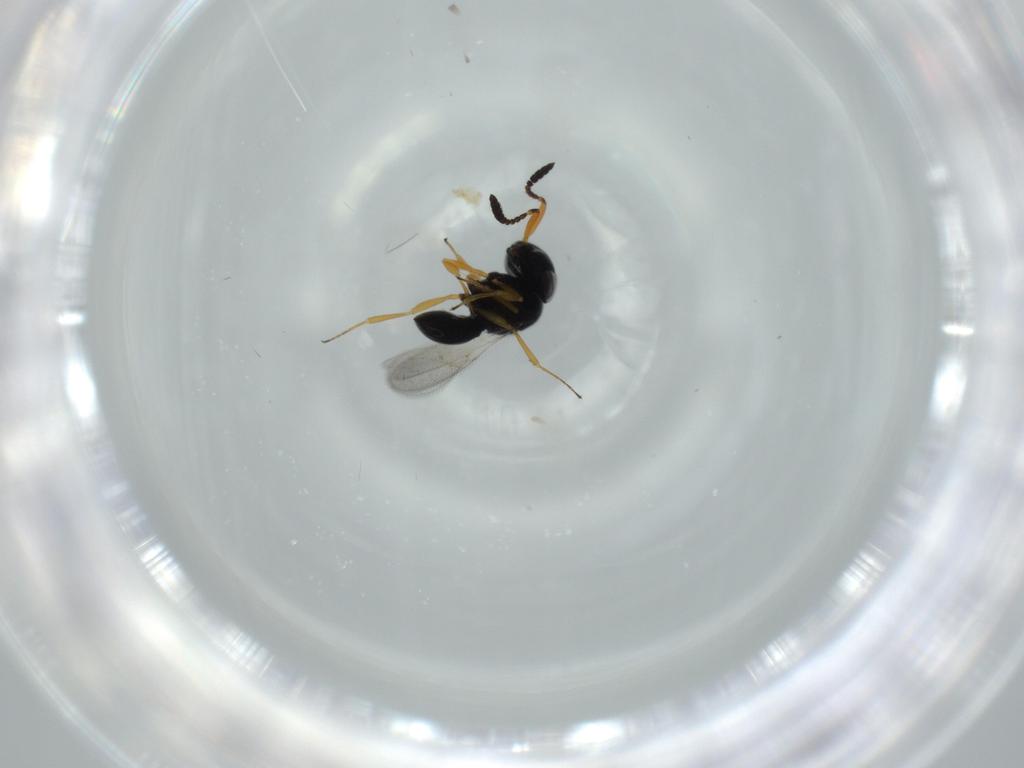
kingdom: Animalia
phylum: Arthropoda
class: Insecta
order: Hymenoptera
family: Scelionidae
